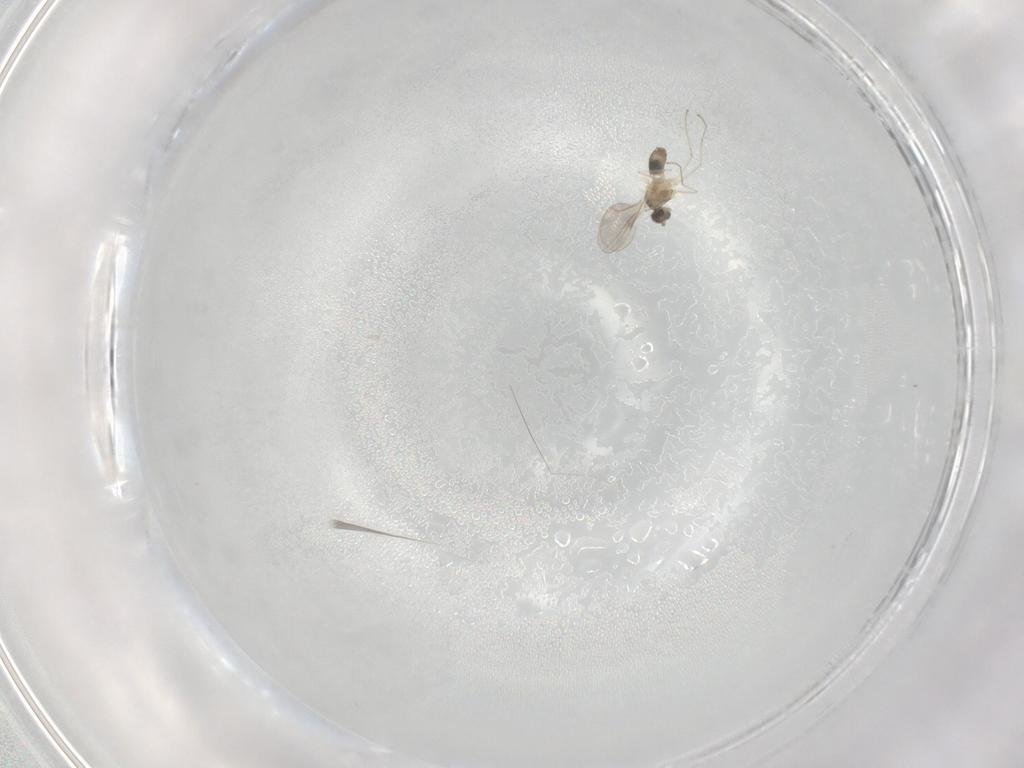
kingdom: Animalia
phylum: Arthropoda
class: Insecta
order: Diptera
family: Cecidomyiidae
